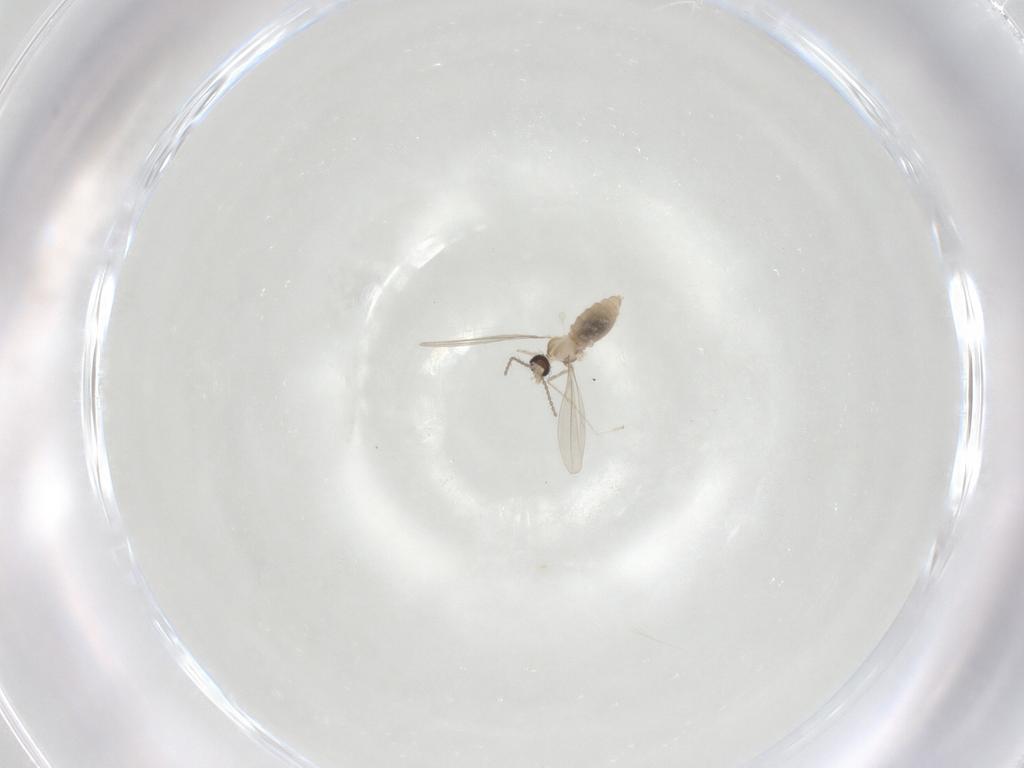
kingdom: Animalia
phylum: Arthropoda
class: Insecta
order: Diptera
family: Cecidomyiidae
